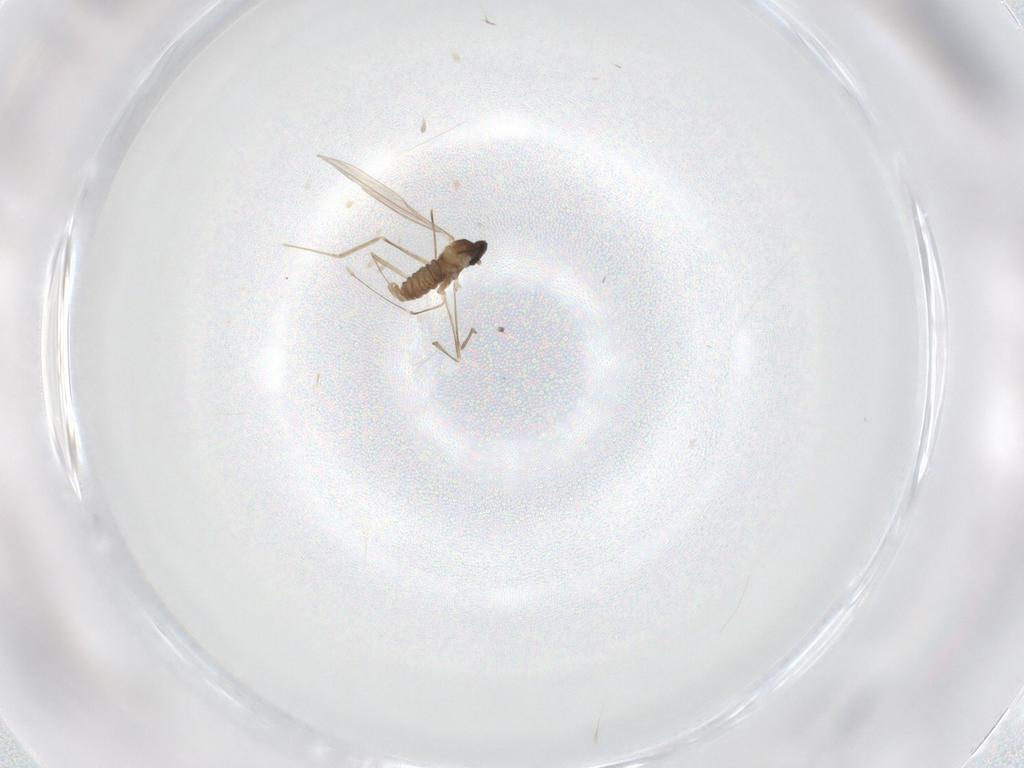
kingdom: Animalia
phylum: Arthropoda
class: Insecta
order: Diptera
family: Cecidomyiidae
